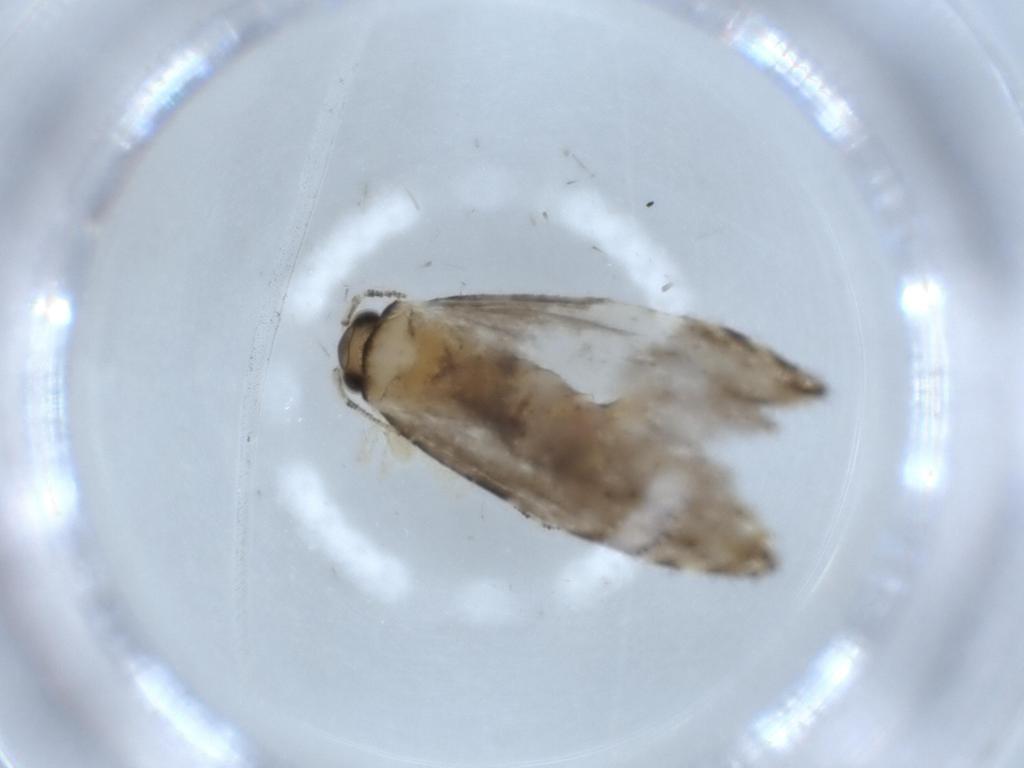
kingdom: Animalia
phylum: Arthropoda
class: Insecta
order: Lepidoptera
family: Tineidae
